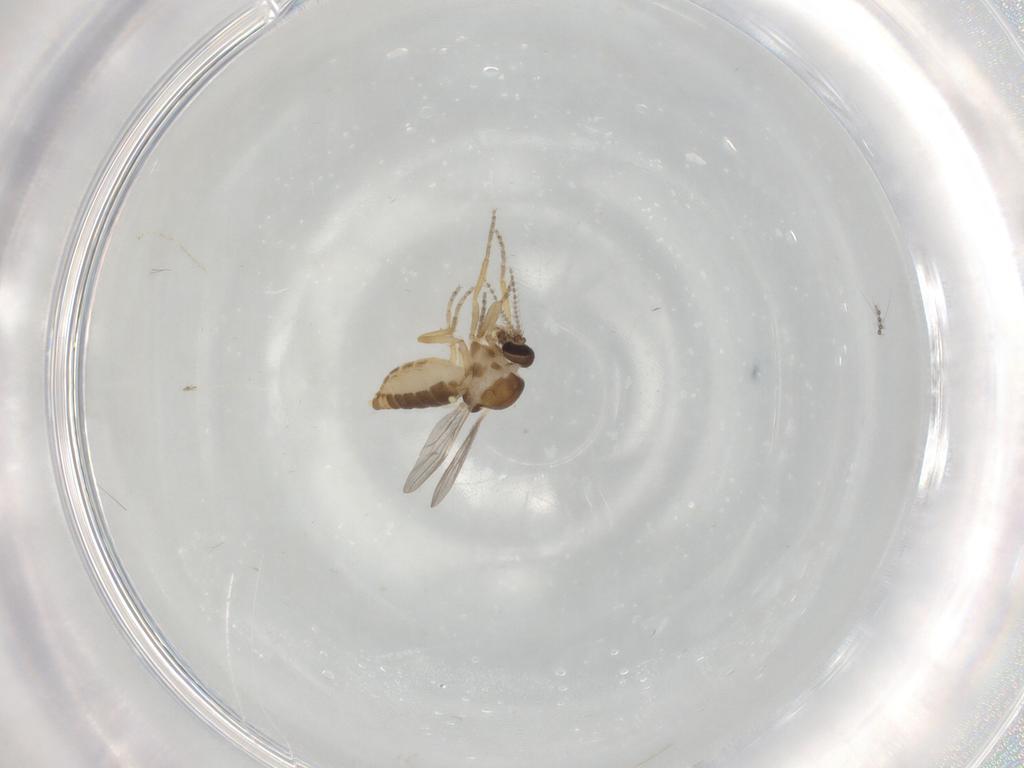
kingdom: Animalia
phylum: Arthropoda
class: Insecta
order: Diptera
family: Ceratopogonidae
